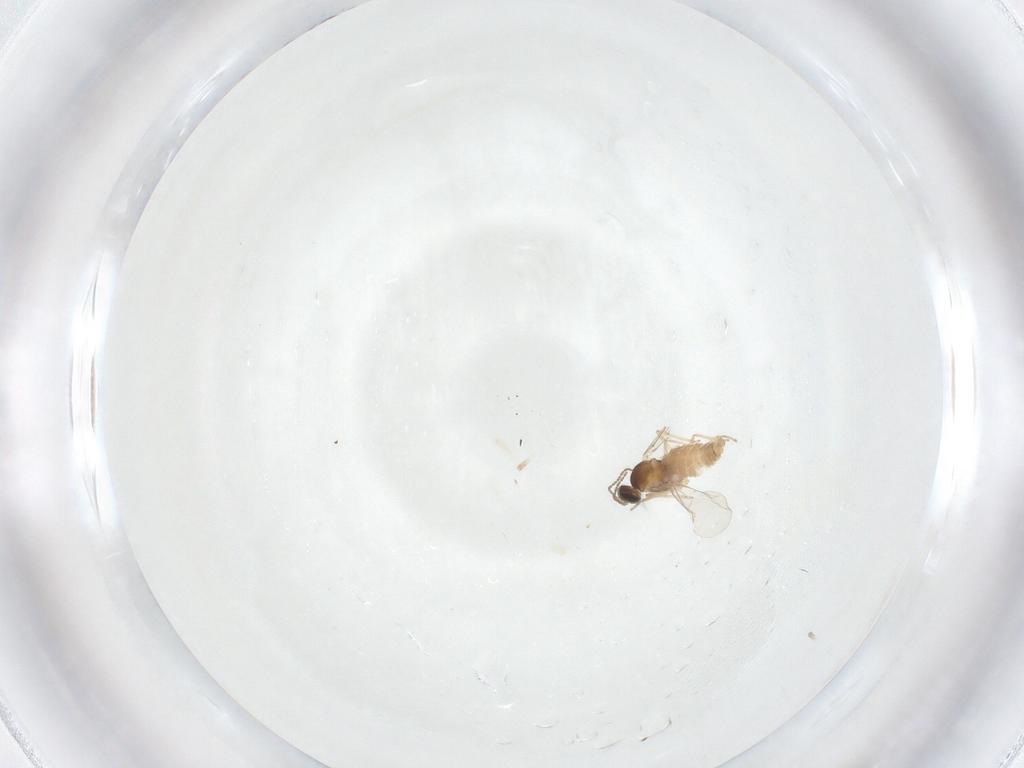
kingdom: Animalia
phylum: Arthropoda
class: Insecta
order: Diptera
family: Cecidomyiidae
